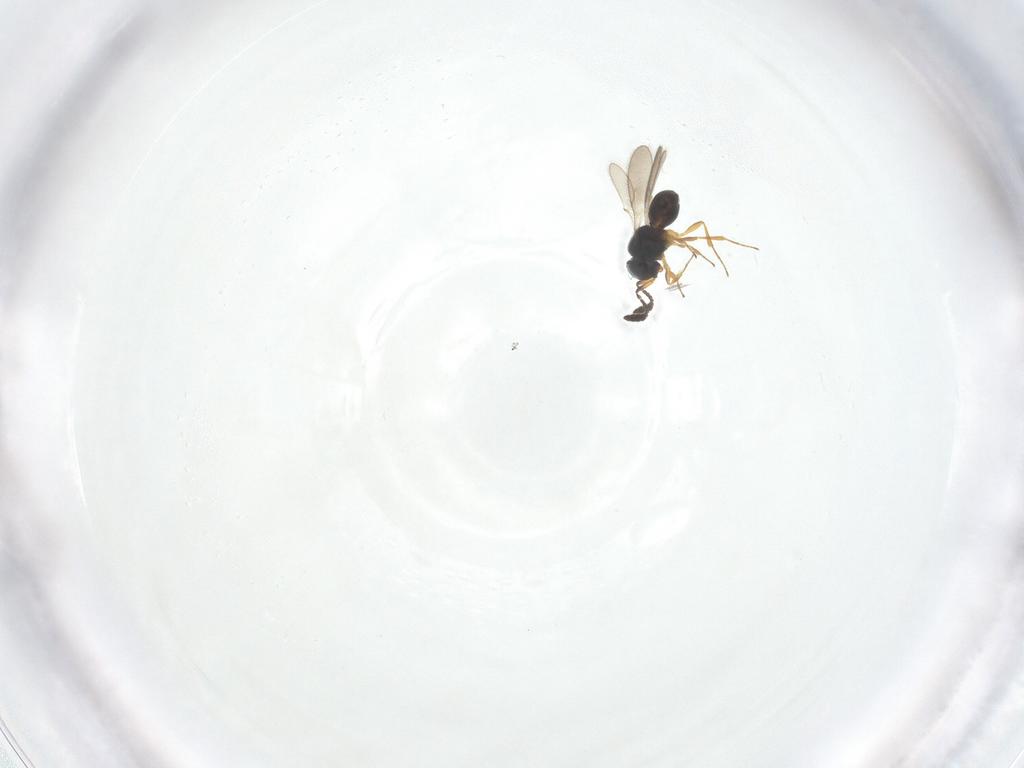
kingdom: Animalia
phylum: Arthropoda
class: Insecta
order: Hymenoptera
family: Scelionidae
